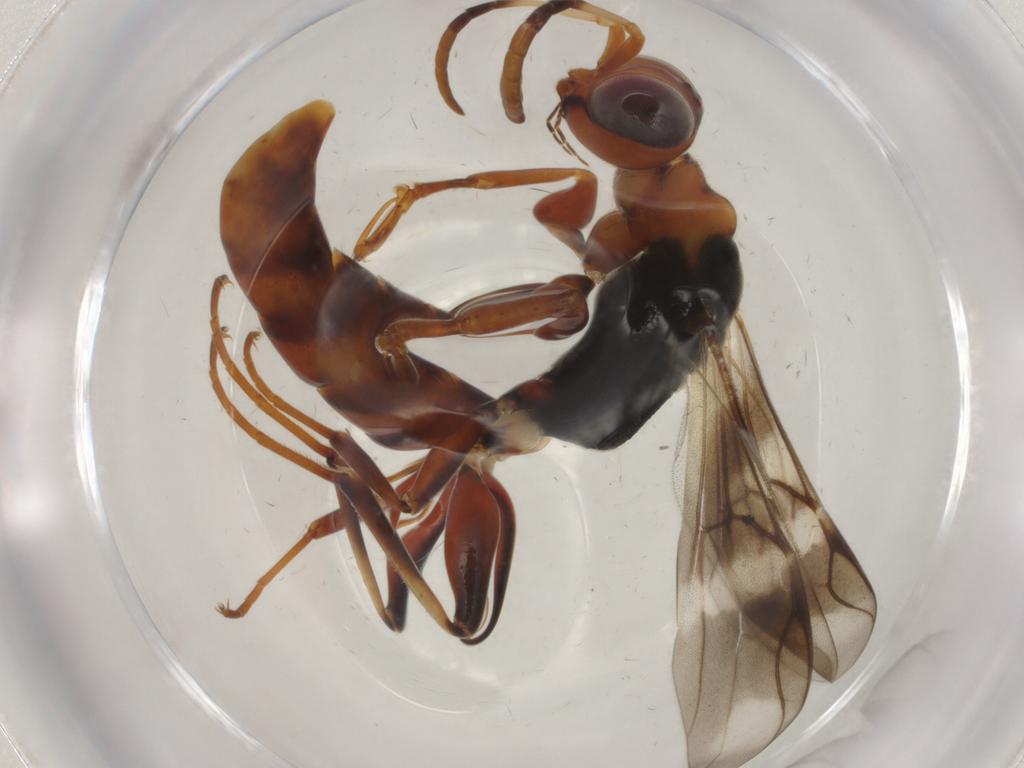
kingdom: Animalia
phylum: Arthropoda
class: Insecta
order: Hymenoptera
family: Dryinidae
